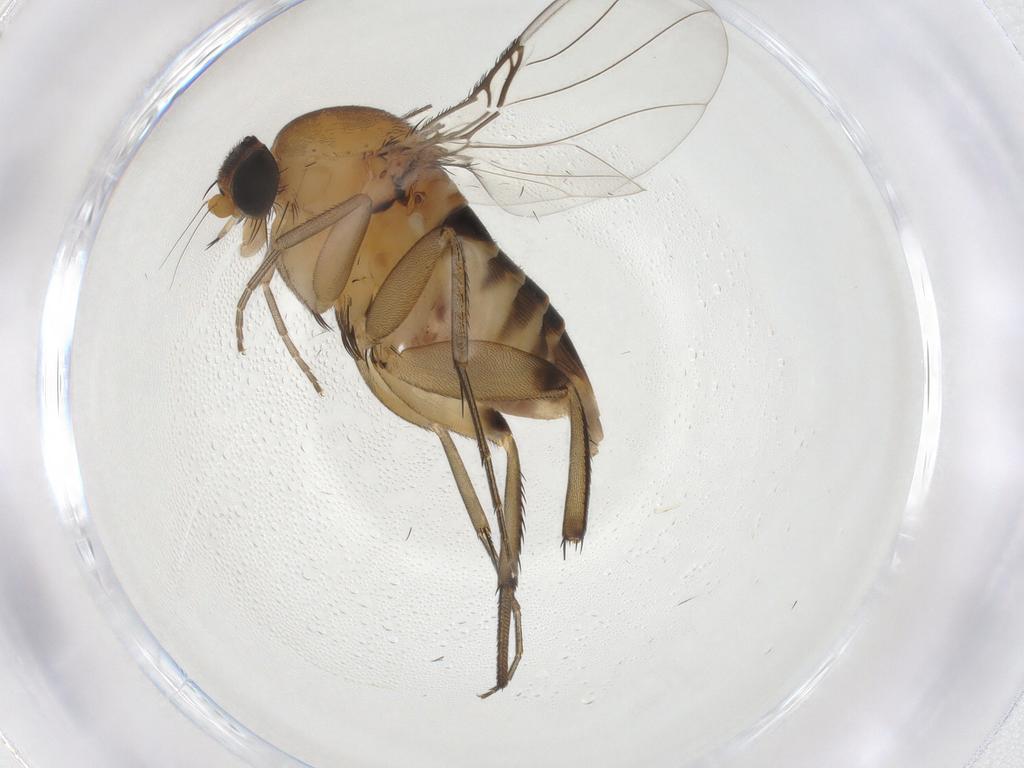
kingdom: Animalia
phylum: Arthropoda
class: Insecta
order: Diptera
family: Phoridae
